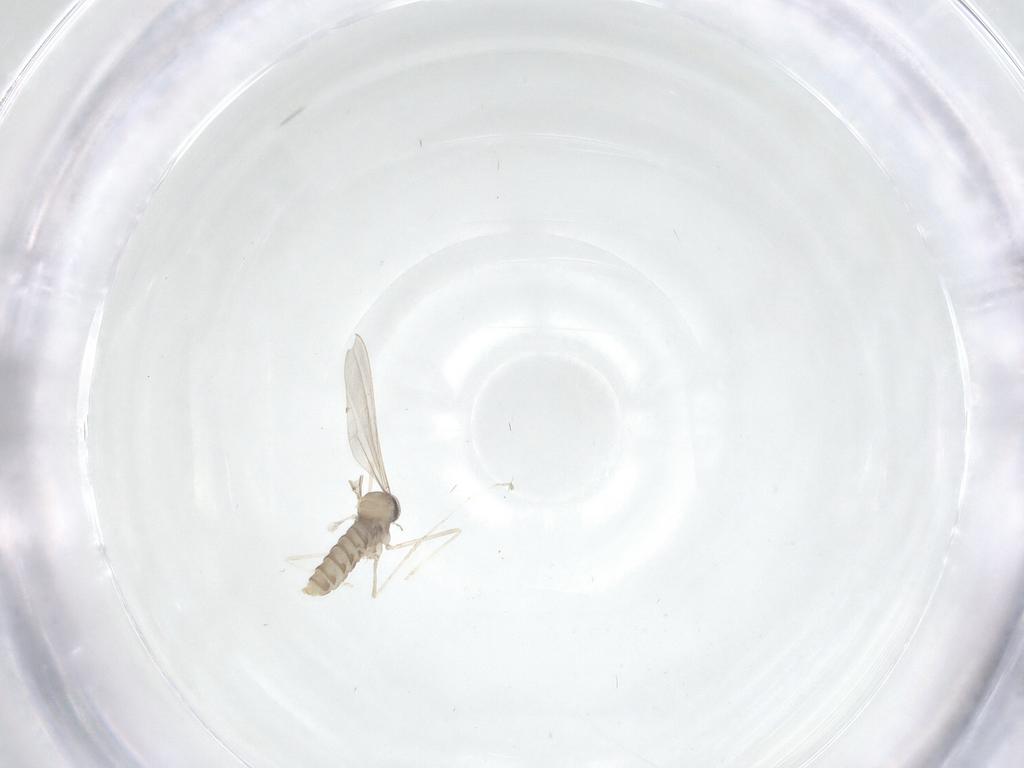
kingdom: Animalia
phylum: Arthropoda
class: Insecta
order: Diptera
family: Cecidomyiidae
